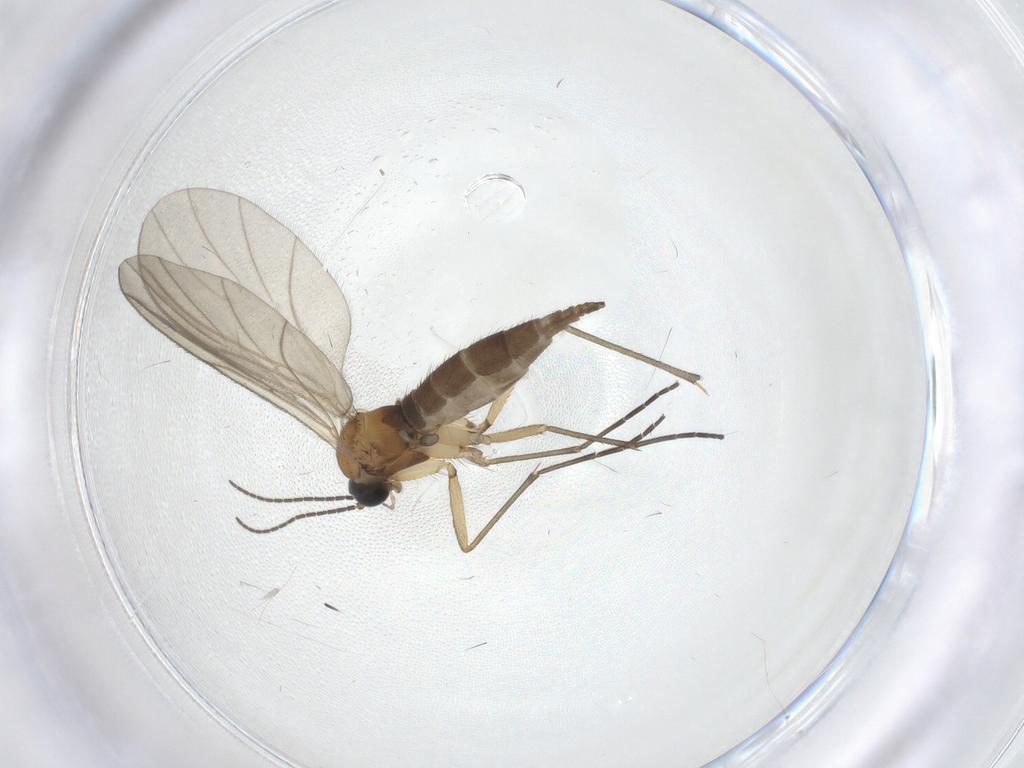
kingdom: Animalia
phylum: Arthropoda
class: Insecta
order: Diptera
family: Sciaridae
